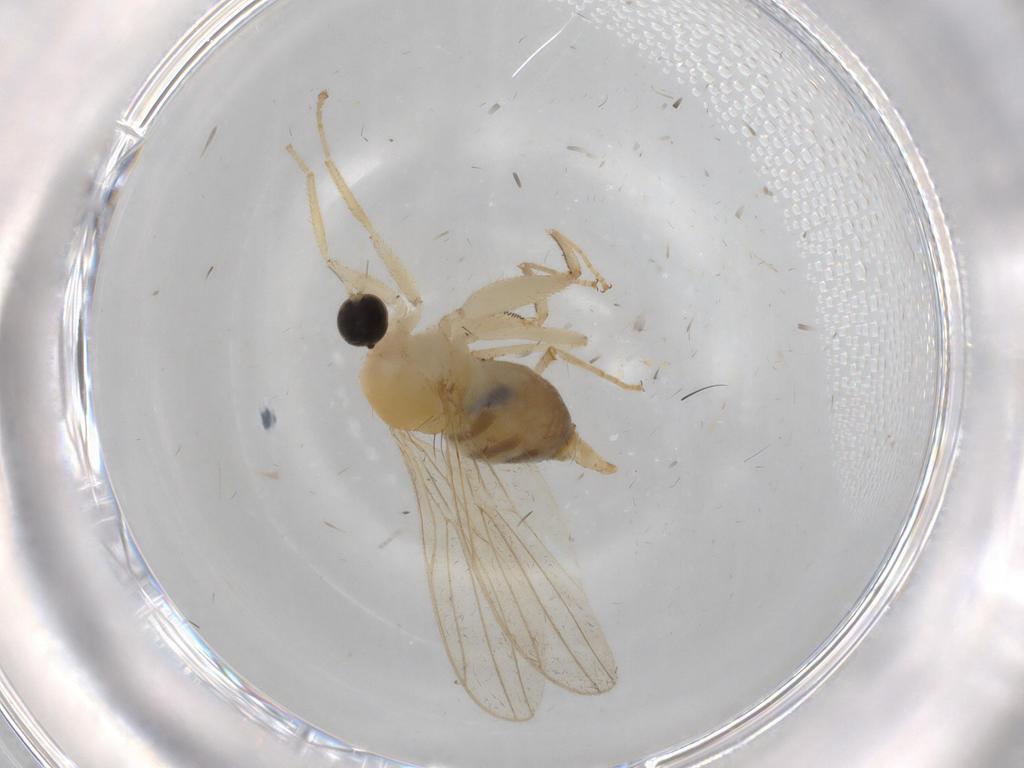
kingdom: Animalia
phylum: Arthropoda
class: Insecta
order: Diptera
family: Hybotidae
